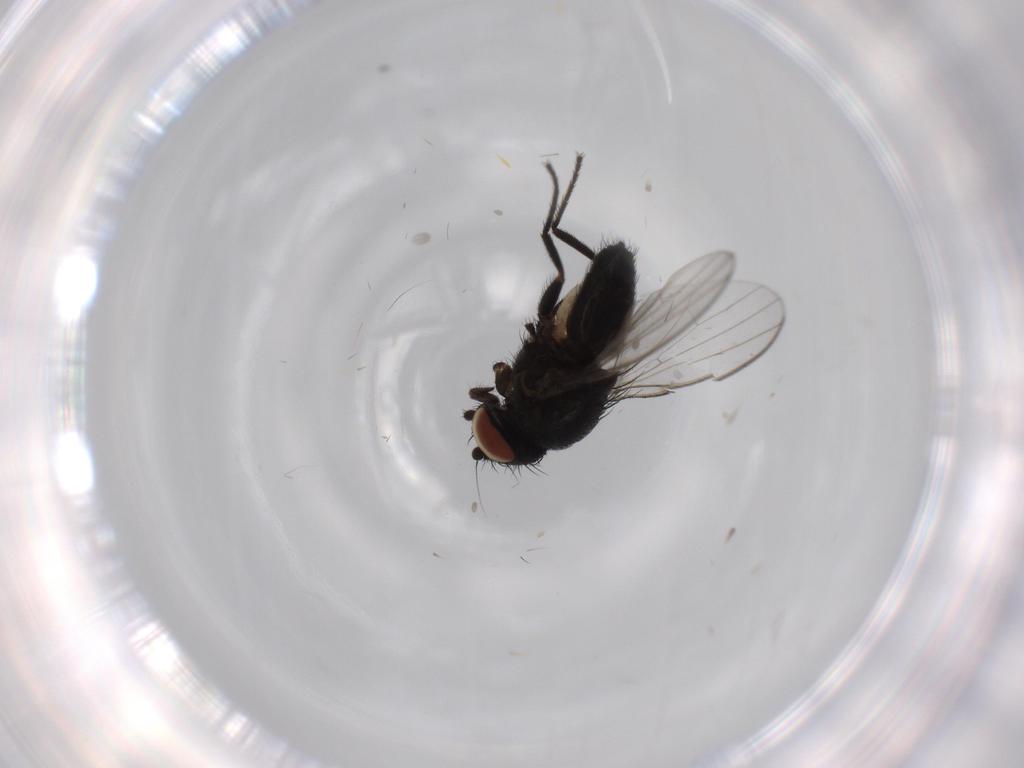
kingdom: Animalia
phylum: Arthropoda
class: Insecta
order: Diptera
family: Milichiidae
